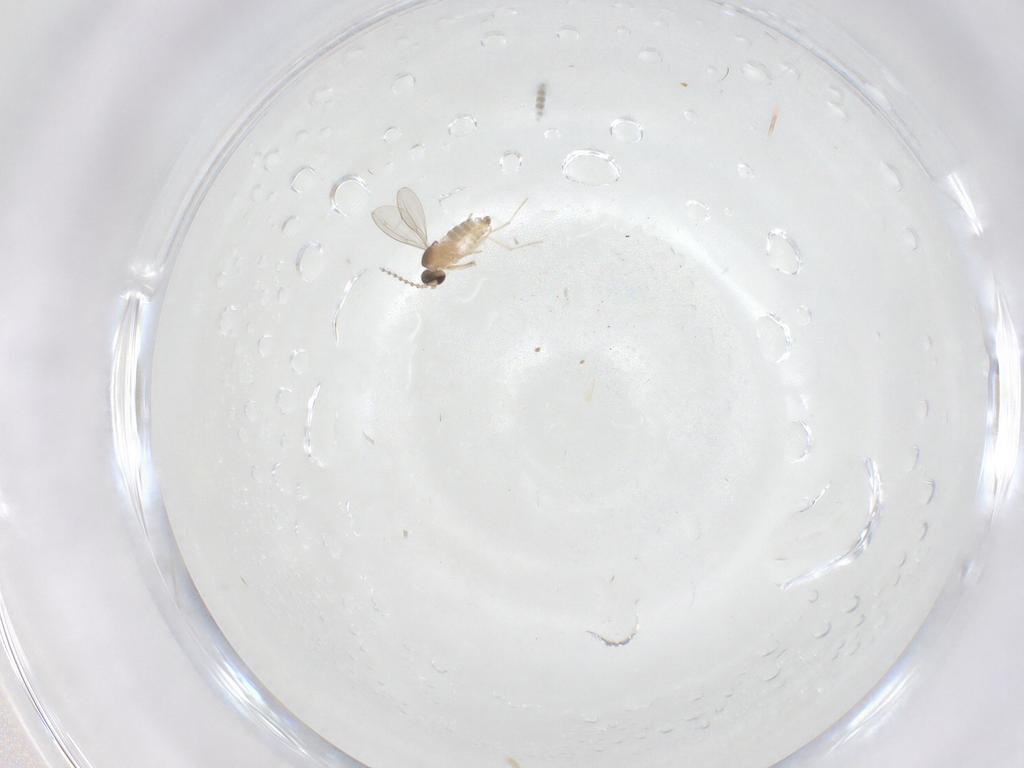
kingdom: Animalia
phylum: Arthropoda
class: Insecta
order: Diptera
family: Cecidomyiidae
